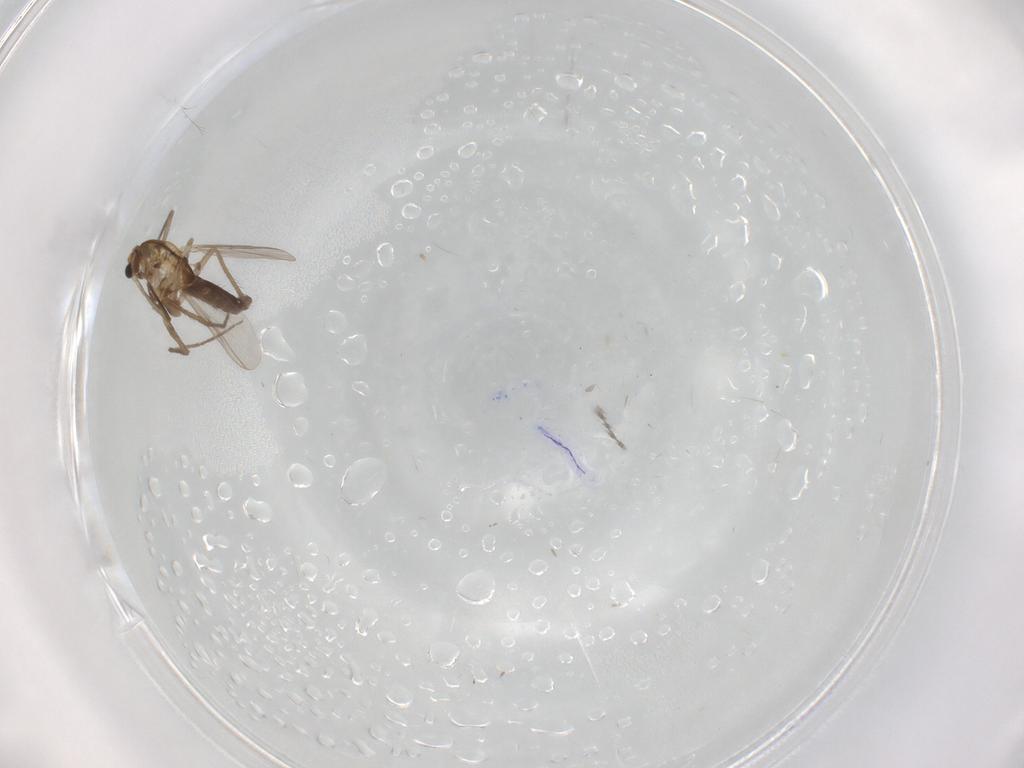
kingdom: Animalia
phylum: Arthropoda
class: Insecta
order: Diptera
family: Chironomidae
